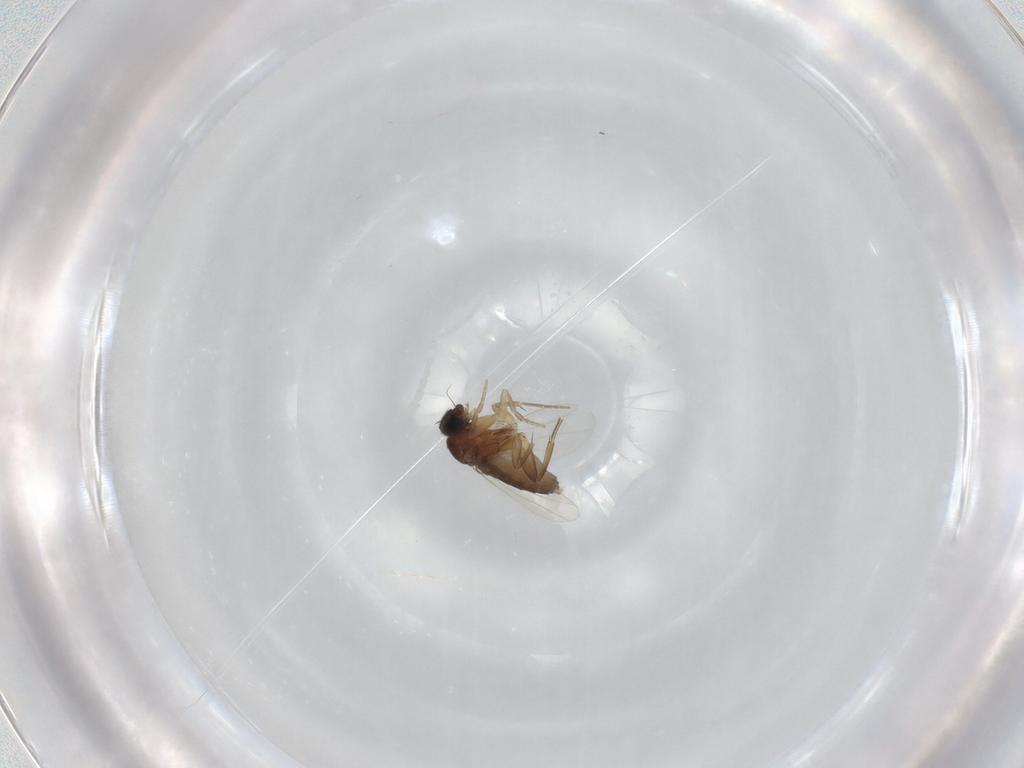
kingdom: Animalia
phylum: Arthropoda
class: Insecta
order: Diptera
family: Phoridae
